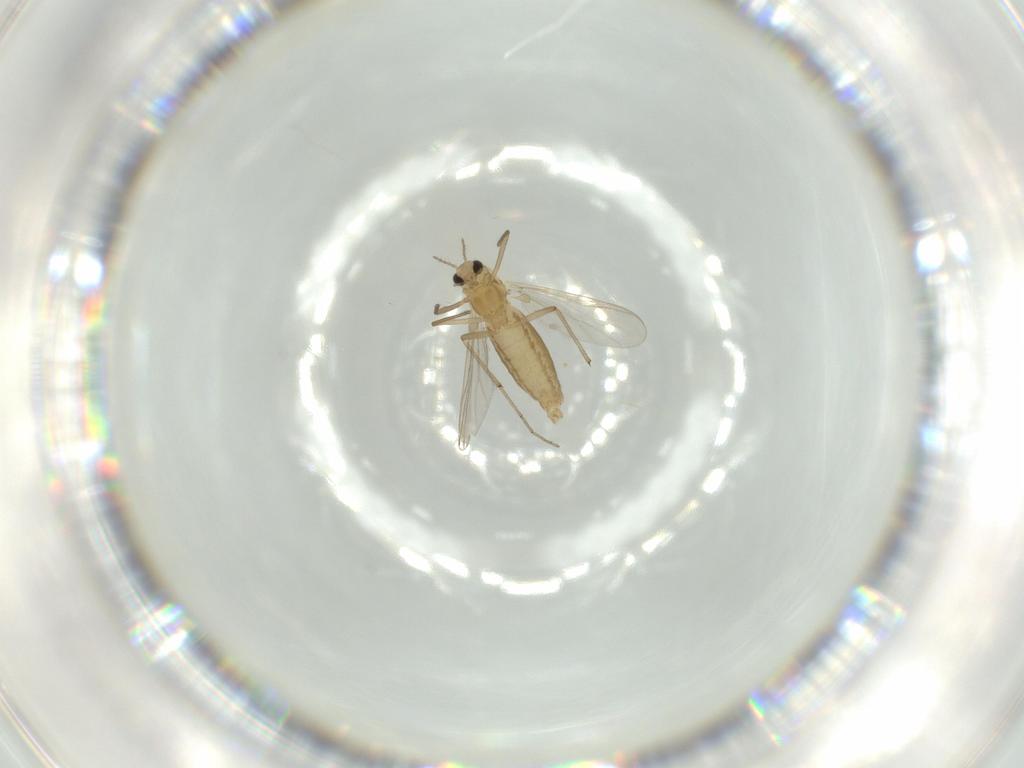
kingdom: Animalia
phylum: Arthropoda
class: Insecta
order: Diptera
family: Chironomidae
